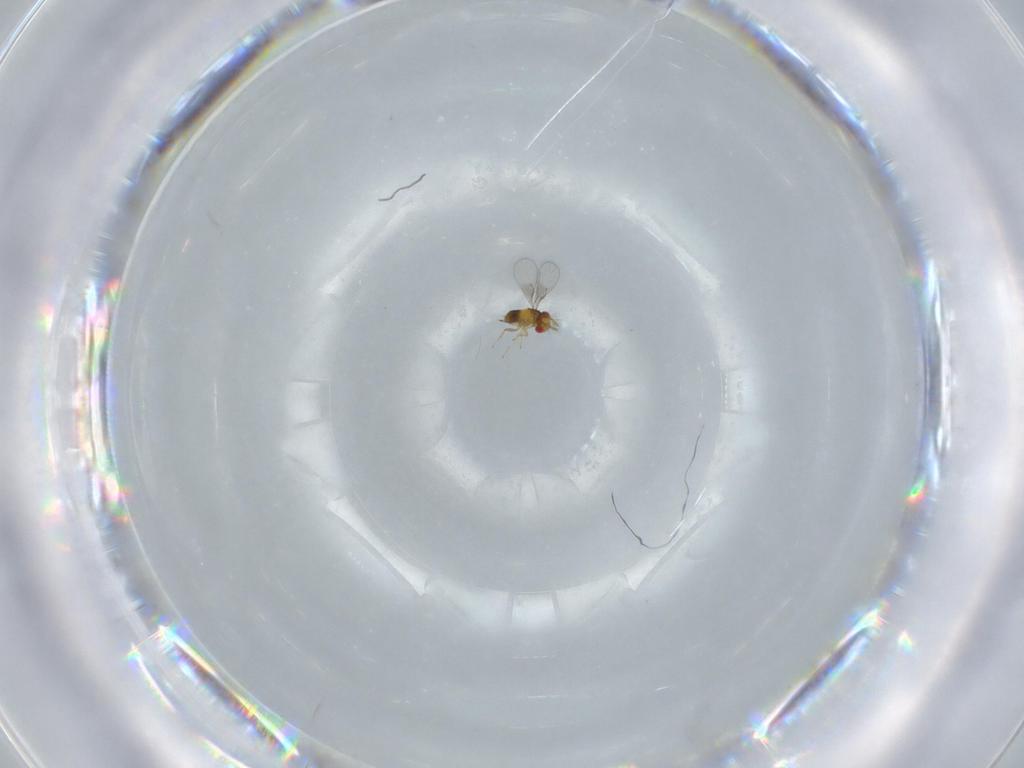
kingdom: Animalia
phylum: Arthropoda
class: Insecta
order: Hymenoptera
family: Trichogrammatidae
